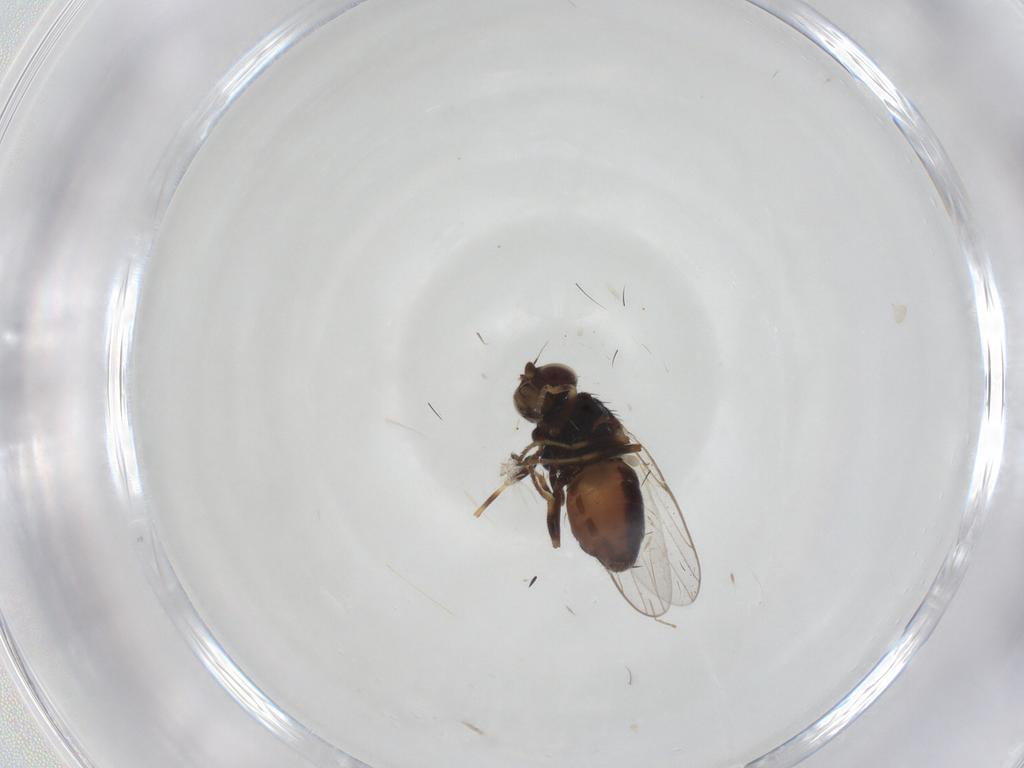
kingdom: Animalia
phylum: Arthropoda
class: Insecta
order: Diptera
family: Chloropidae
